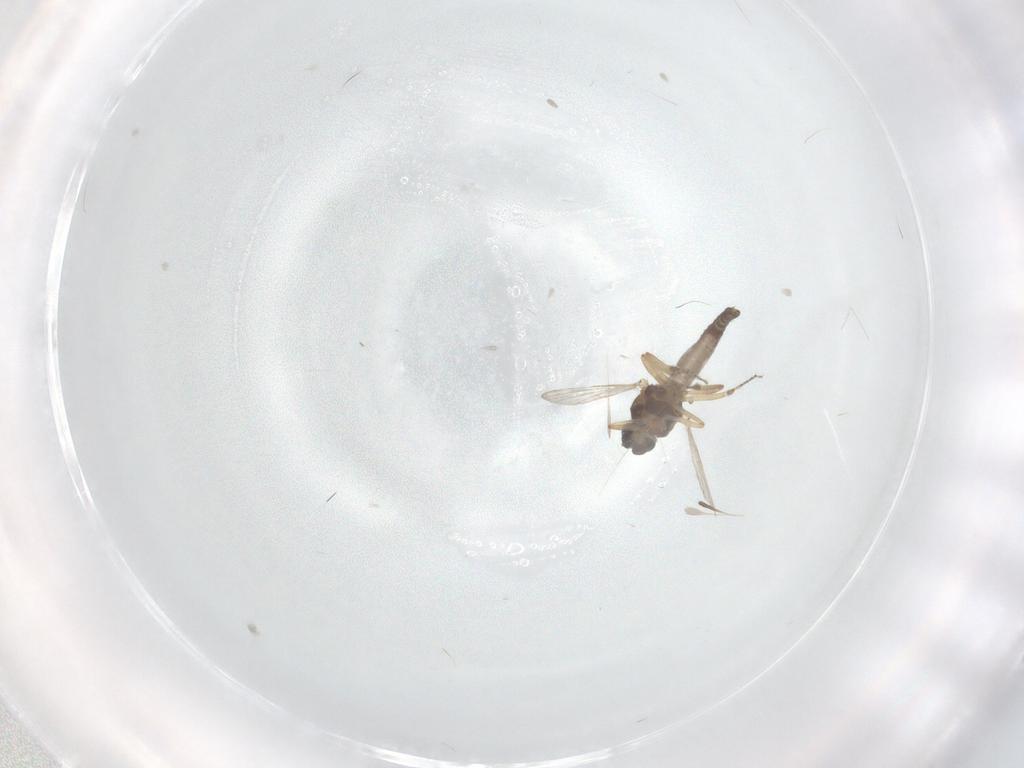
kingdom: Animalia
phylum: Arthropoda
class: Insecta
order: Diptera
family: Ceratopogonidae
